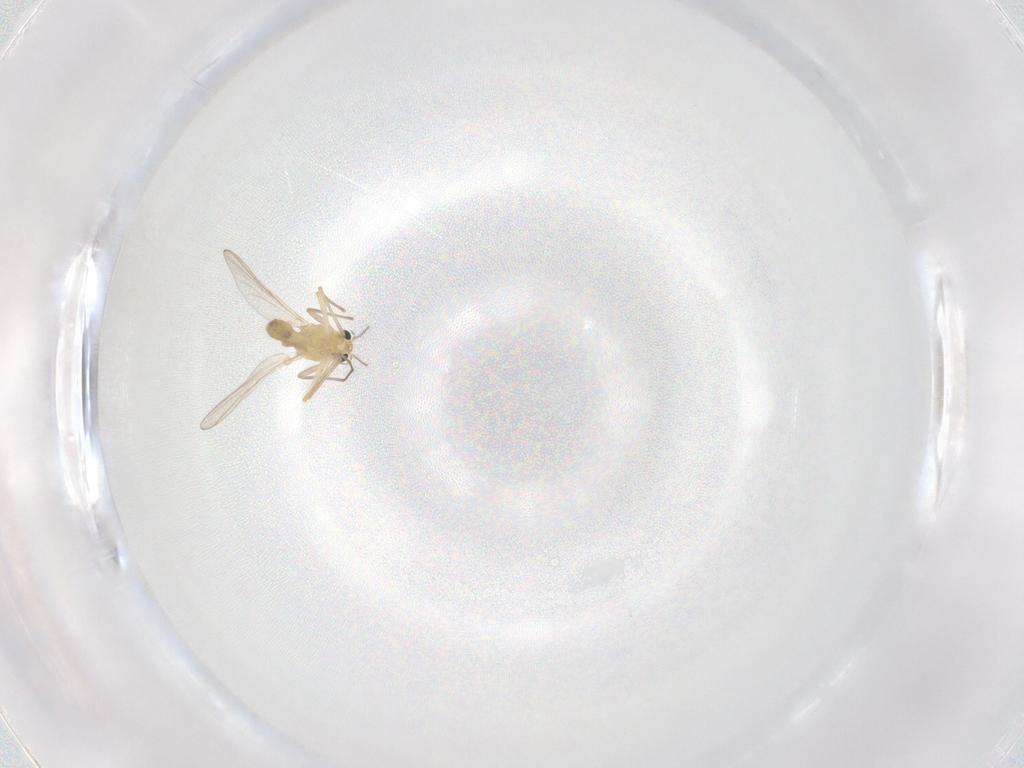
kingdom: Animalia
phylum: Arthropoda
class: Insecta
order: Diptera
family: Chironomidae
